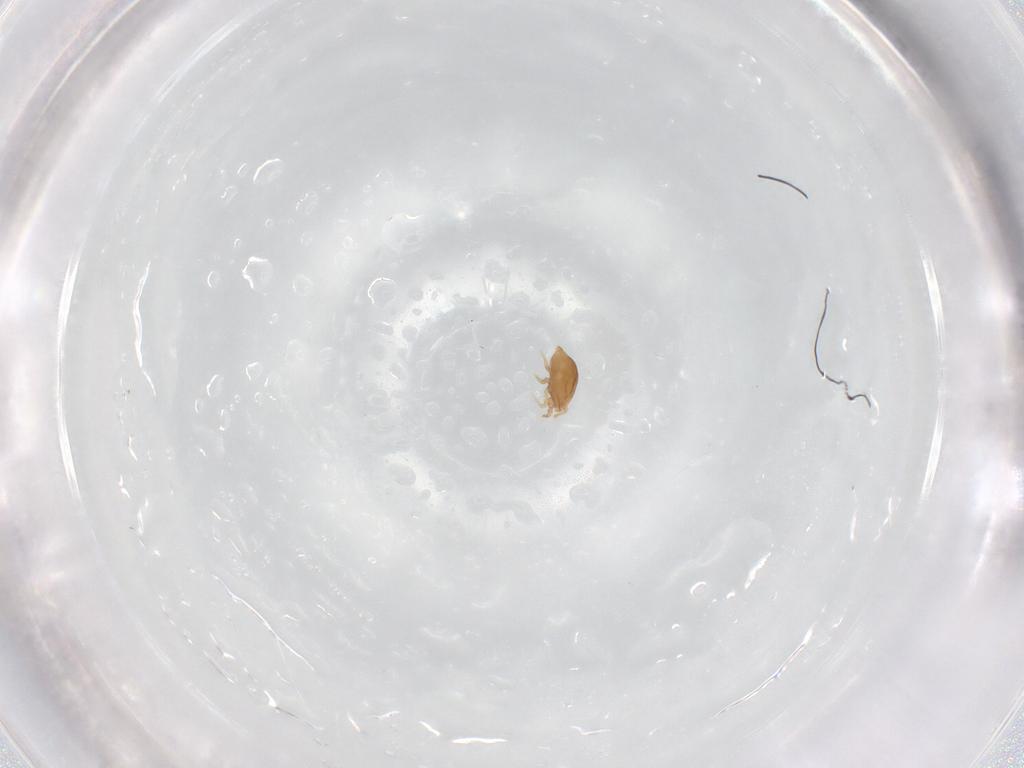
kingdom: Animalia
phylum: Arthropoda
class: Arachnida
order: Mesostigmata
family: Polyaspididae
